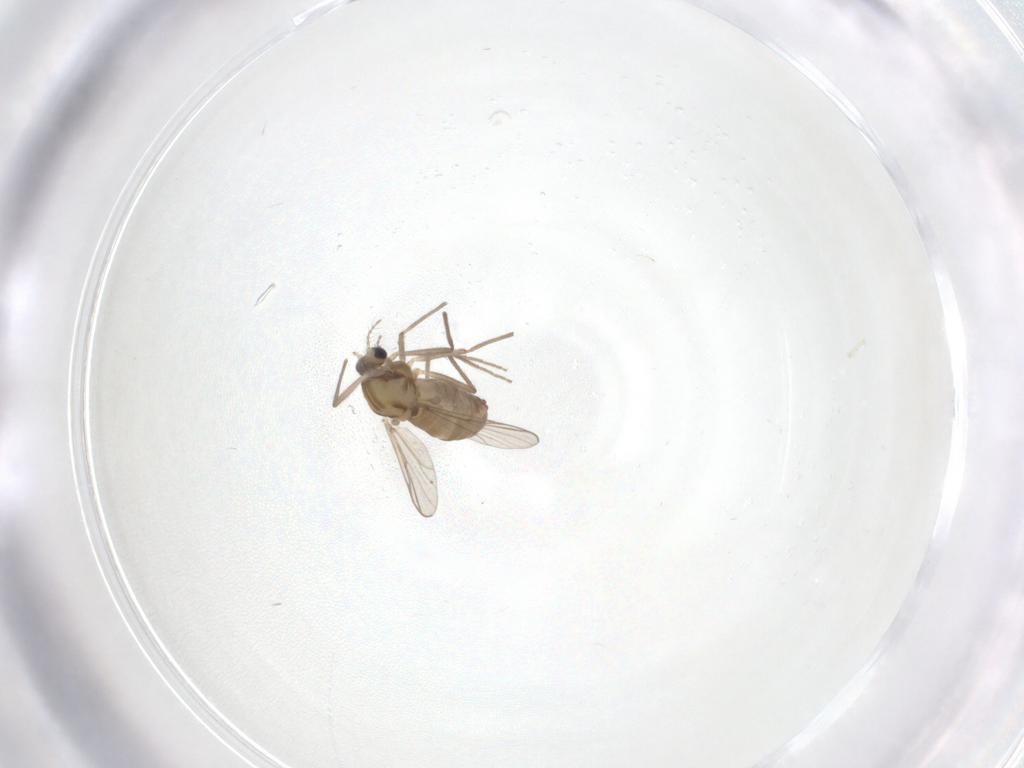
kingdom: Animalia
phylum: Arthropoda
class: Insecta
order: Diptera
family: Chironomidae
